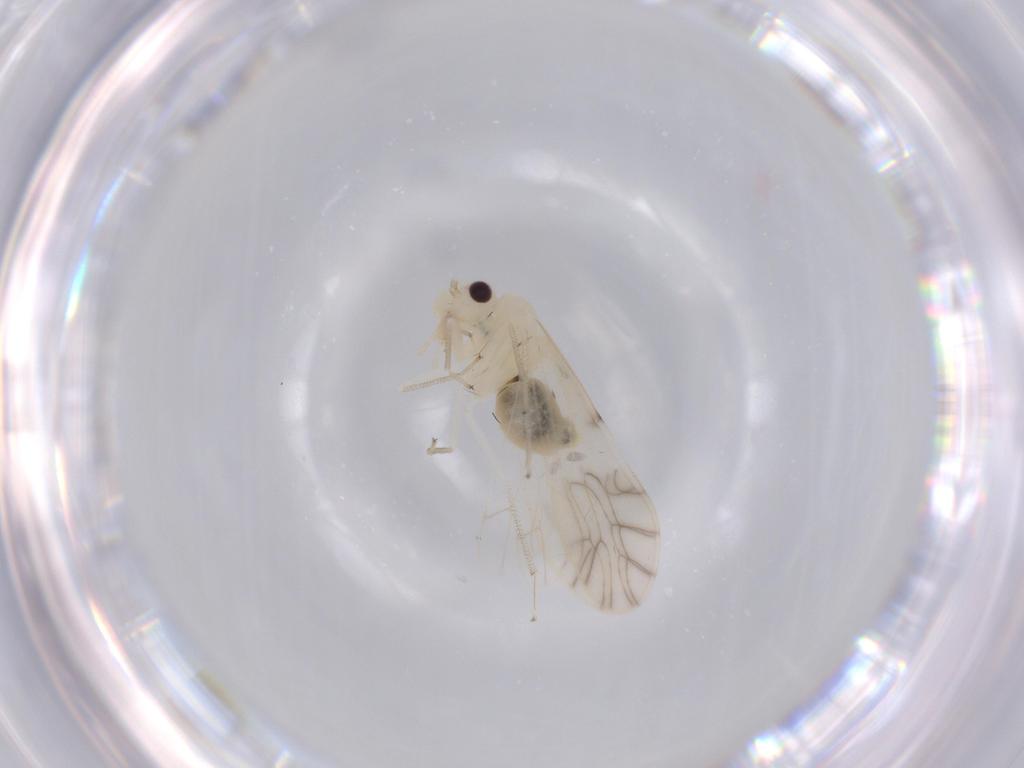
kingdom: Animalia
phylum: Arthropoda
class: Insecta
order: Psocodea
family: Caeciliusidae
